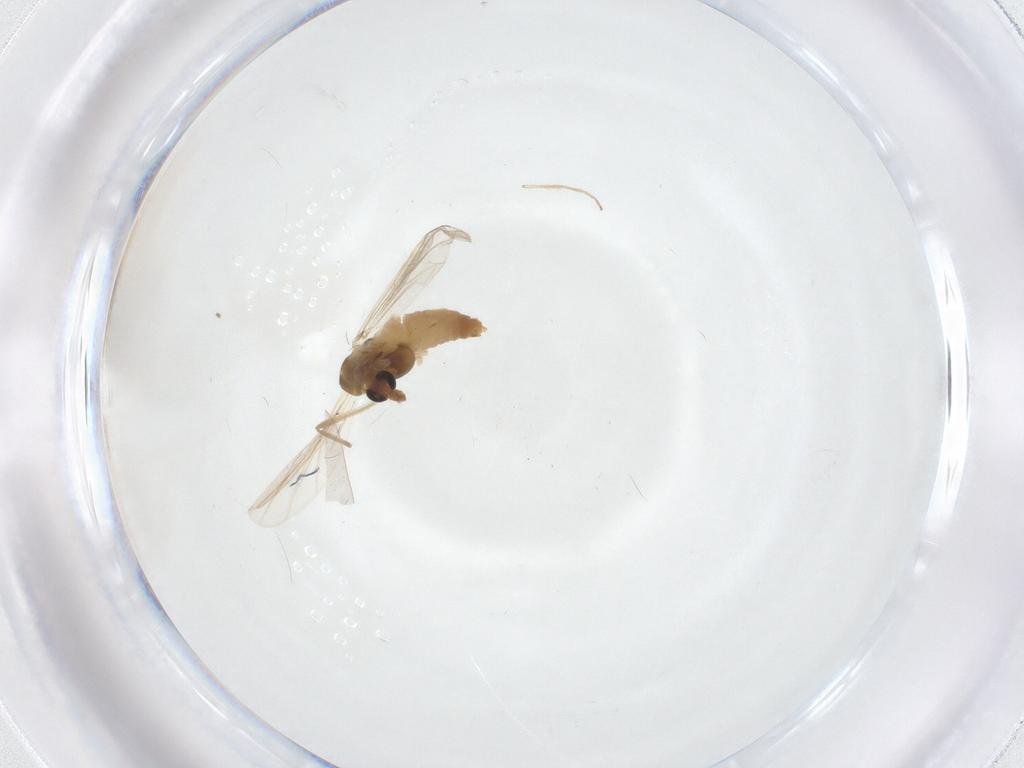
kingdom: Animalia
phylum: Arthropoda
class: Insecta
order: Diptera
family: Chironomidae
